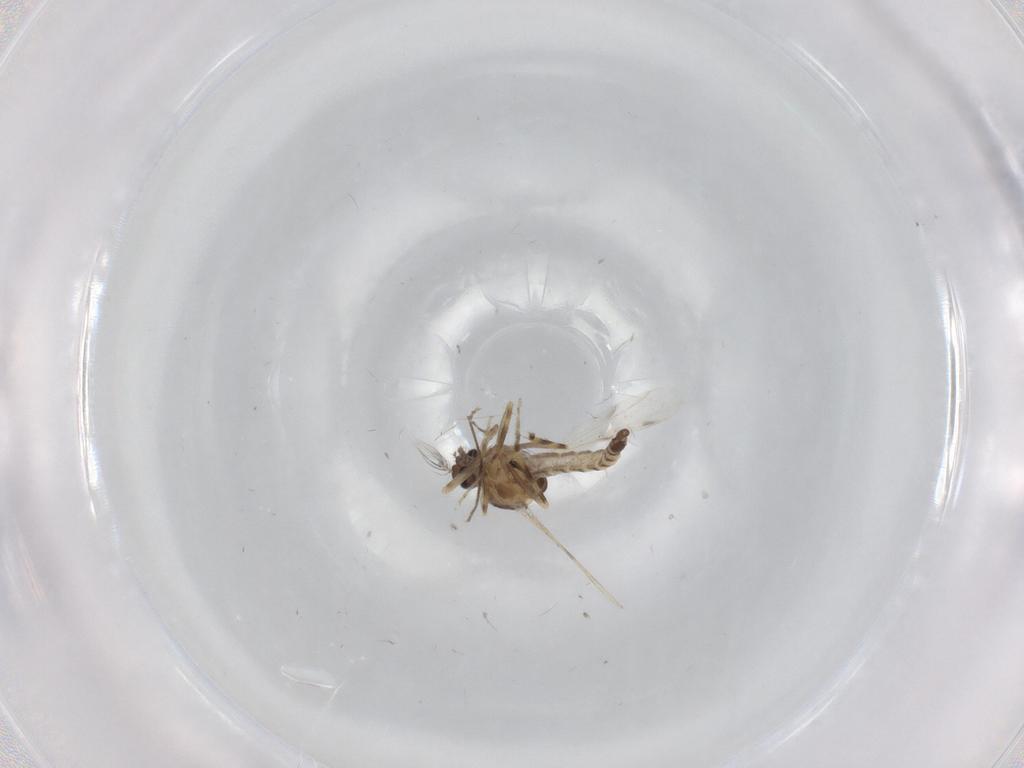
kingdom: Animalia
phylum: Arthropoda
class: Insecta
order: Diptera
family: Ceratopogonidae
